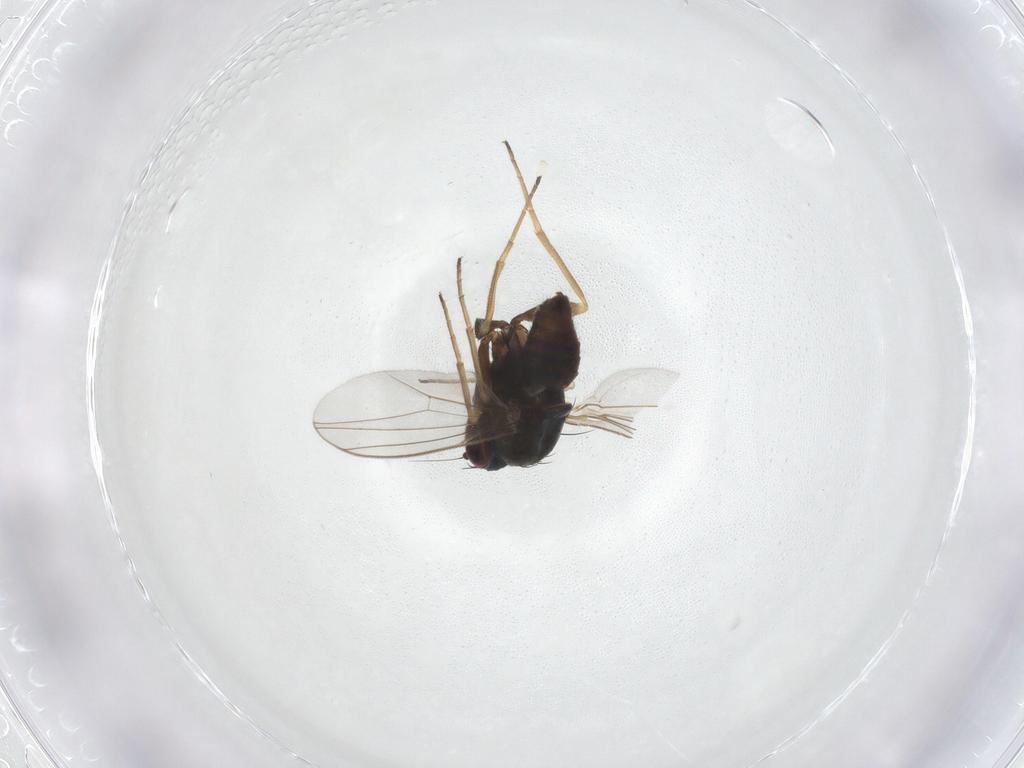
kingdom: Animalia
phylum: Arthropoda
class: Insecta
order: Diptera
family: Dolichopodidae
